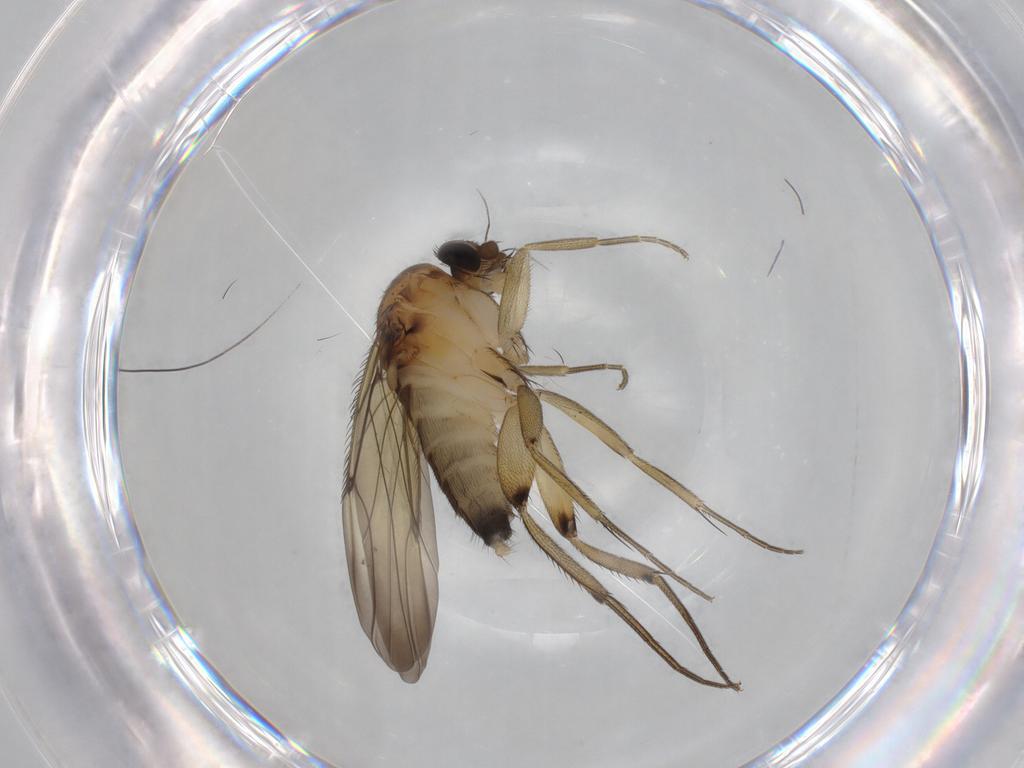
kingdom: Animalia
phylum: Arthropoda
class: Insecta
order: Diptera
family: Phoridae
